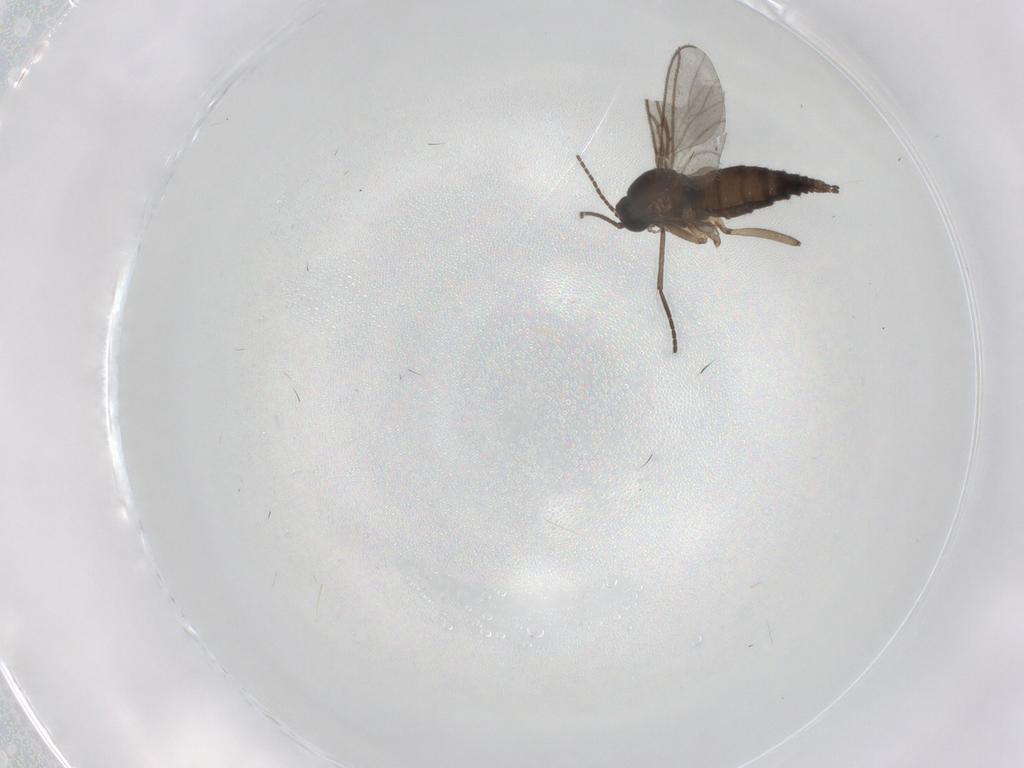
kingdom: Animalia
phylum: Arthropoda
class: Insecta
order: Diptera
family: Sciaridae
